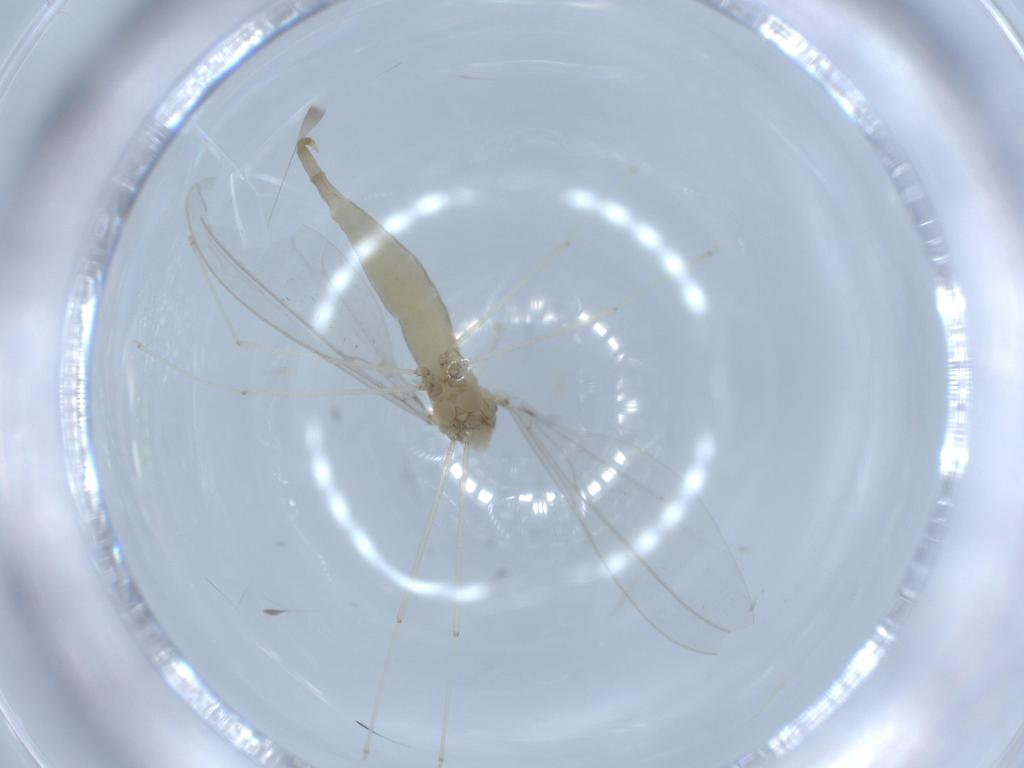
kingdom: Animalia
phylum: Arthropoda
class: Insecta
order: Diptera
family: Cecidomyiidae
